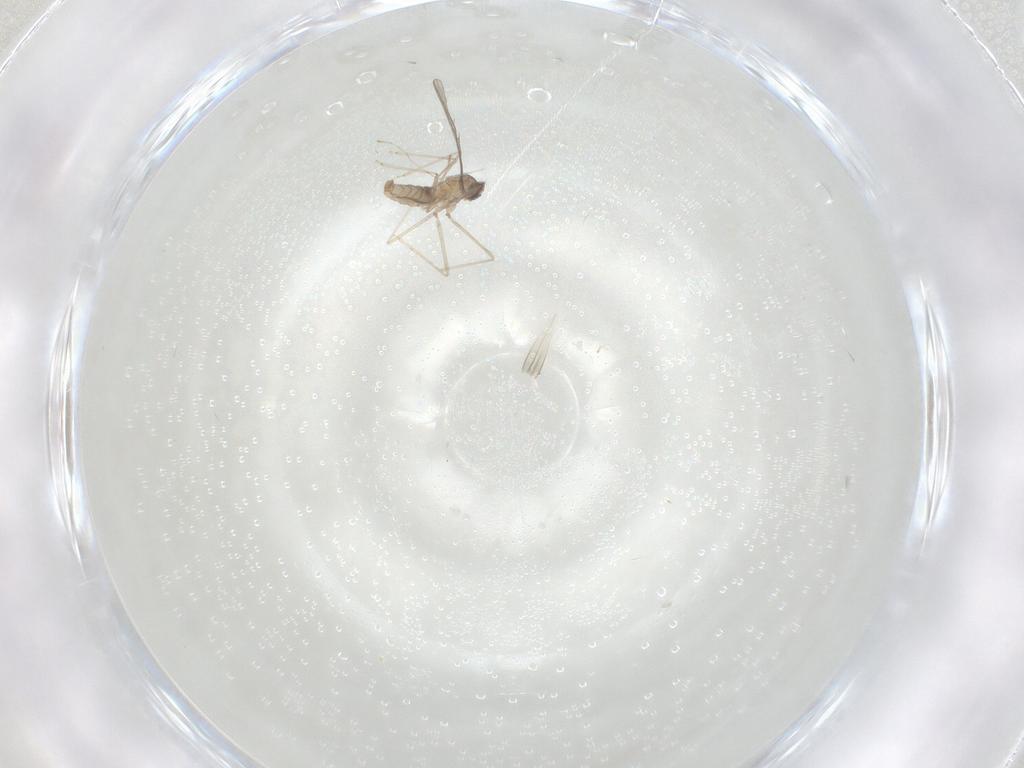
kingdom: Animalia
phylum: Arthropoda
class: Insecta
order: Diptera
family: Cecidomyiidae
